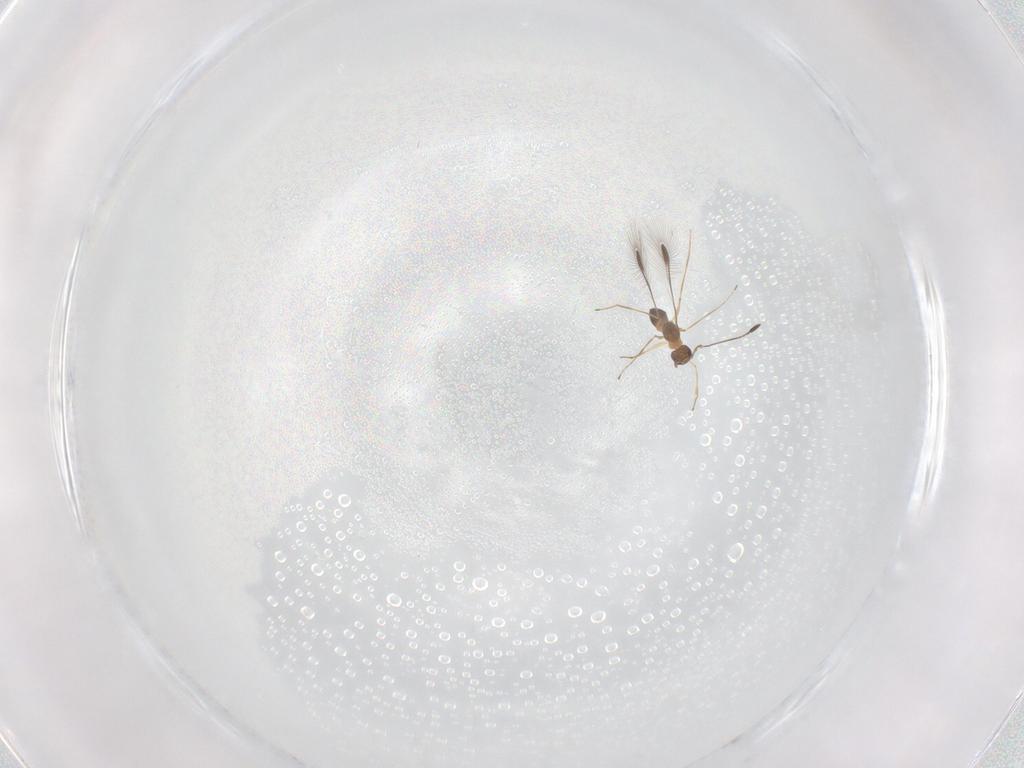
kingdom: Animalia
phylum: Arthropoda
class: Insecta
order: Hymenoptera
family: Mymaridae
